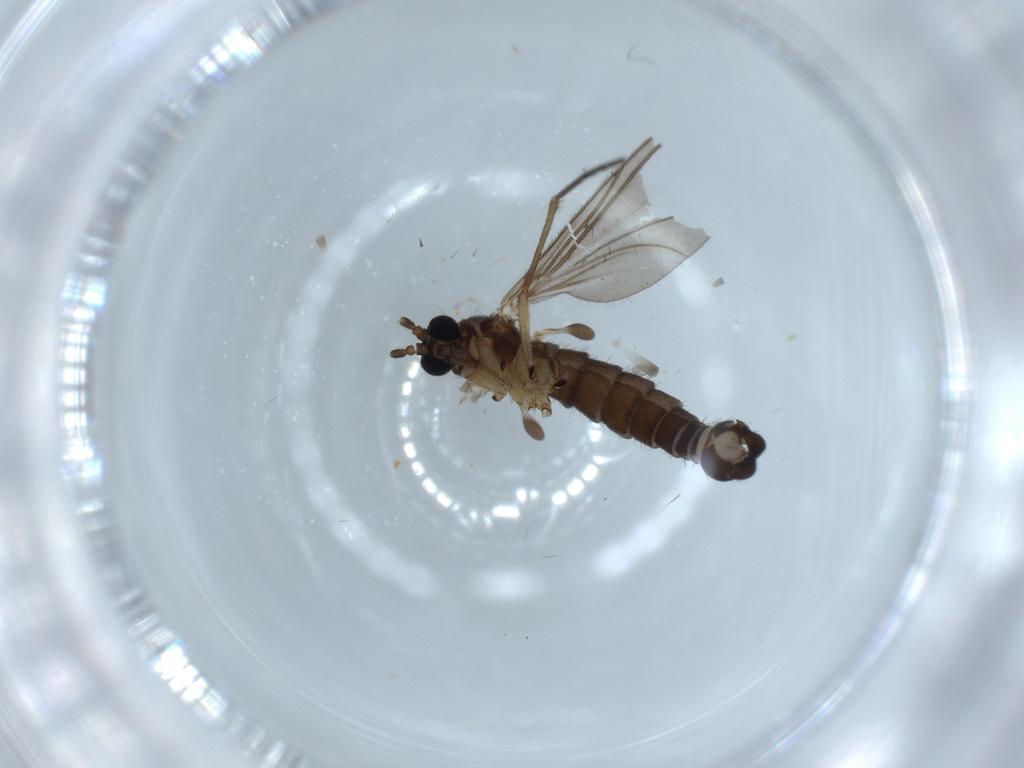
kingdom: Animalia
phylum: Arthropoda
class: Insecta
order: Diptera
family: Sciaridae
